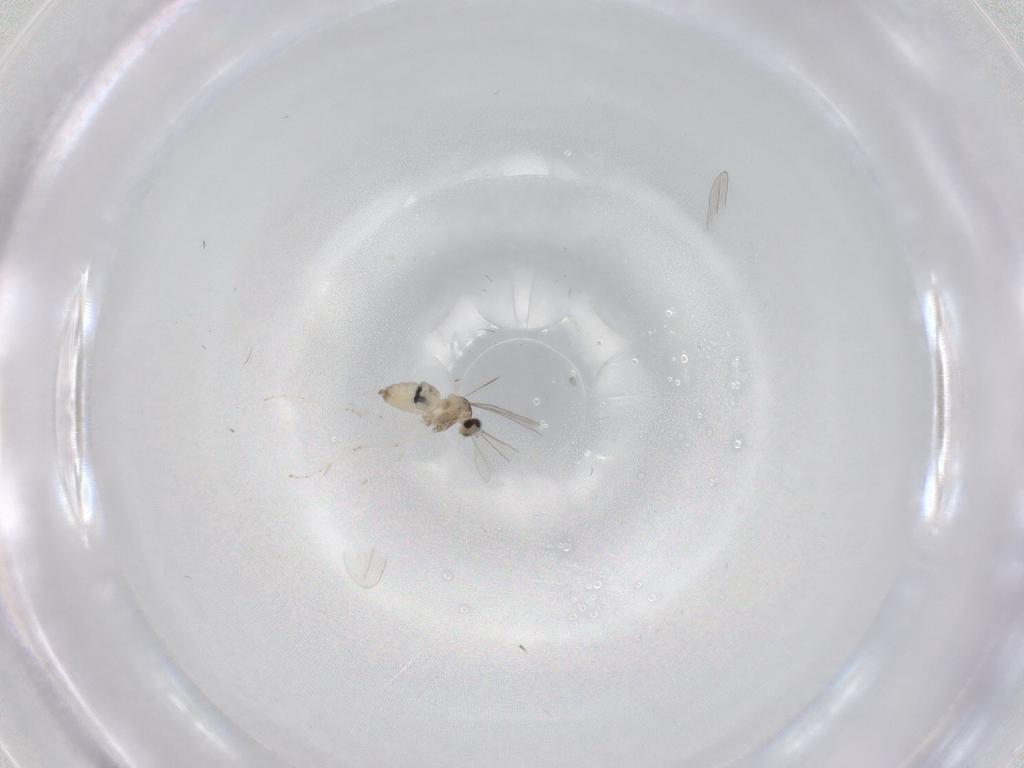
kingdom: Animalia
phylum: Arthropoda
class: Insecta
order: Diptera
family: Cecidomyiidae
